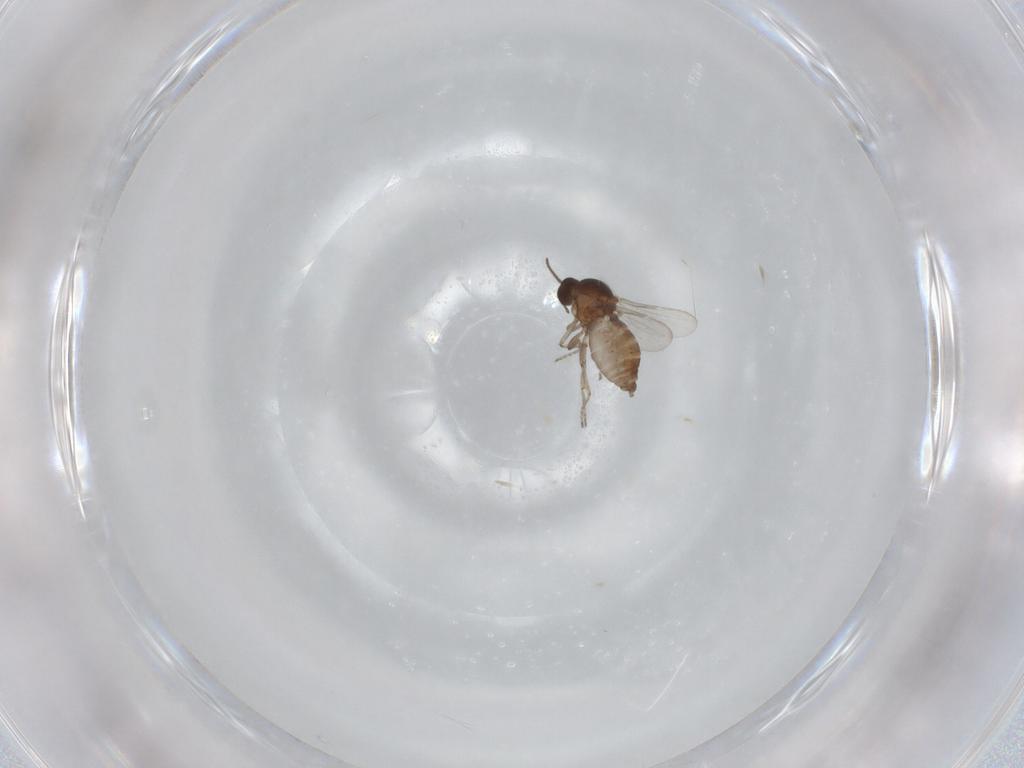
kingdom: Animalia
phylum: Arthropoda
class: Insecta
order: Diptera
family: Ceratopogonidae
